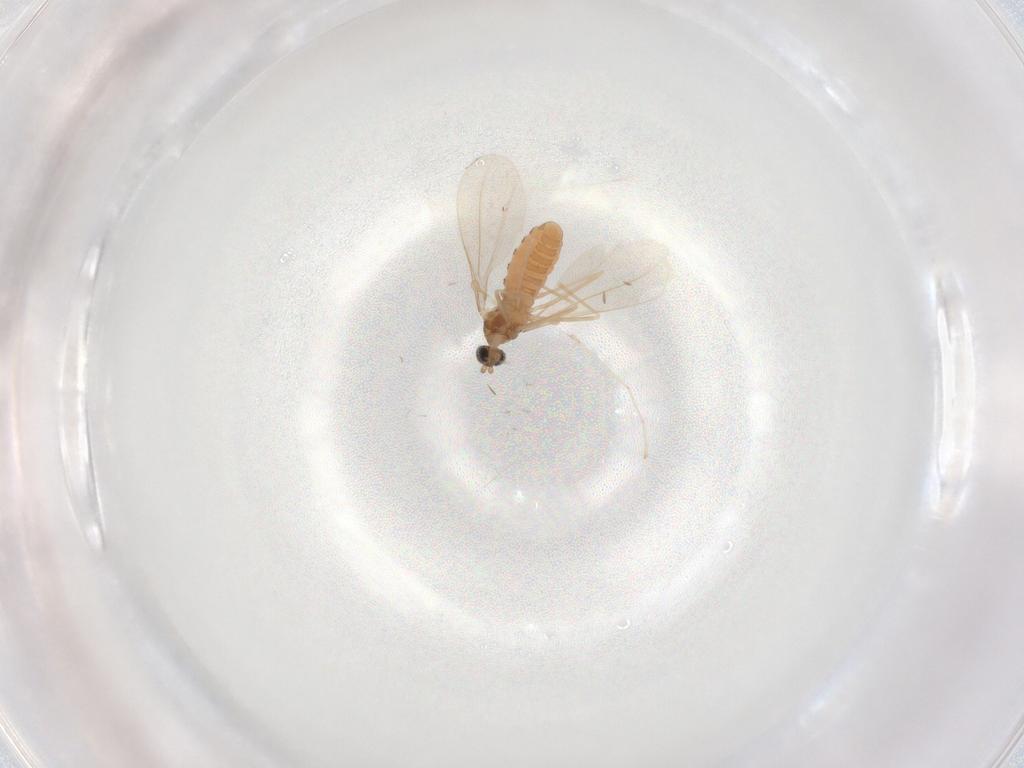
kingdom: Animalia
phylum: Arthropoda
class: Insecta
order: Diptera
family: Cecidomyiidae
